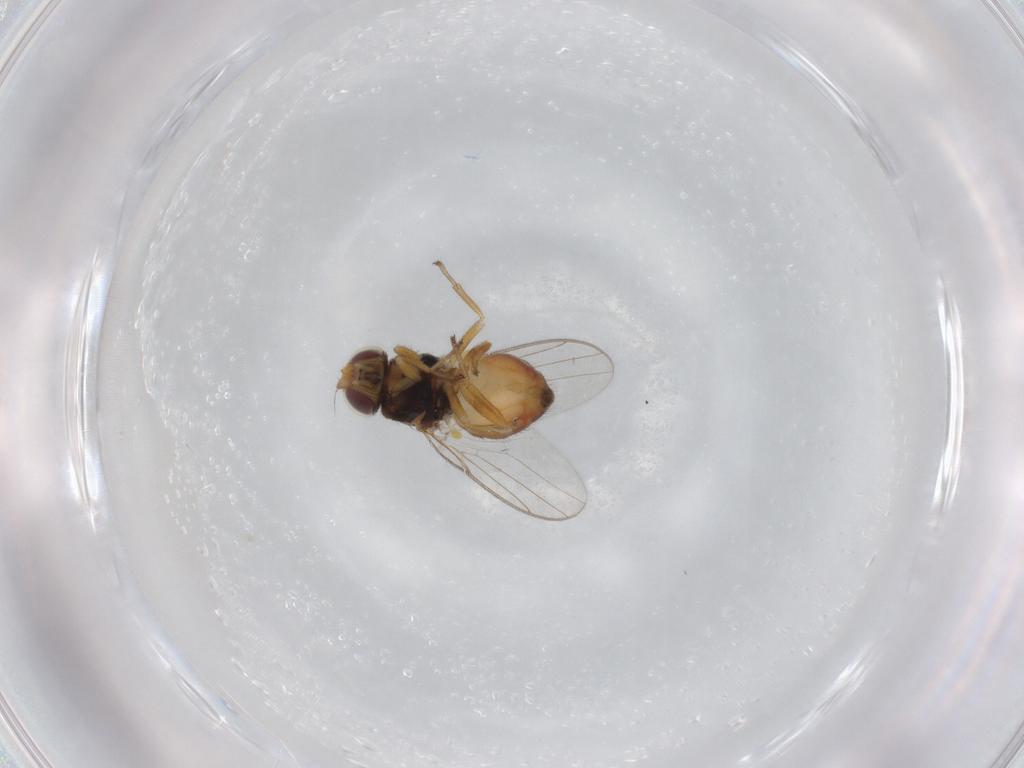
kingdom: Animalia
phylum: Arthropoda
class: Insecta
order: Diptera
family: Chloropidae
